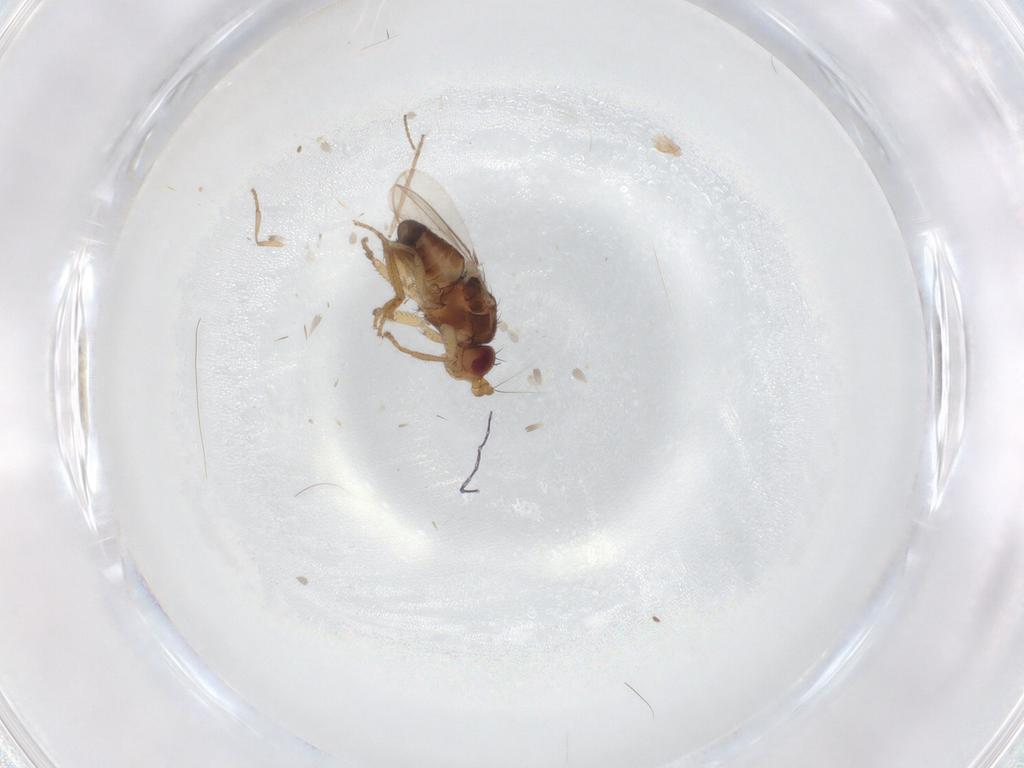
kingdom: Animalia
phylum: Arthropoda
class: Insecta
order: Diptera
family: Sphaeroceridae
